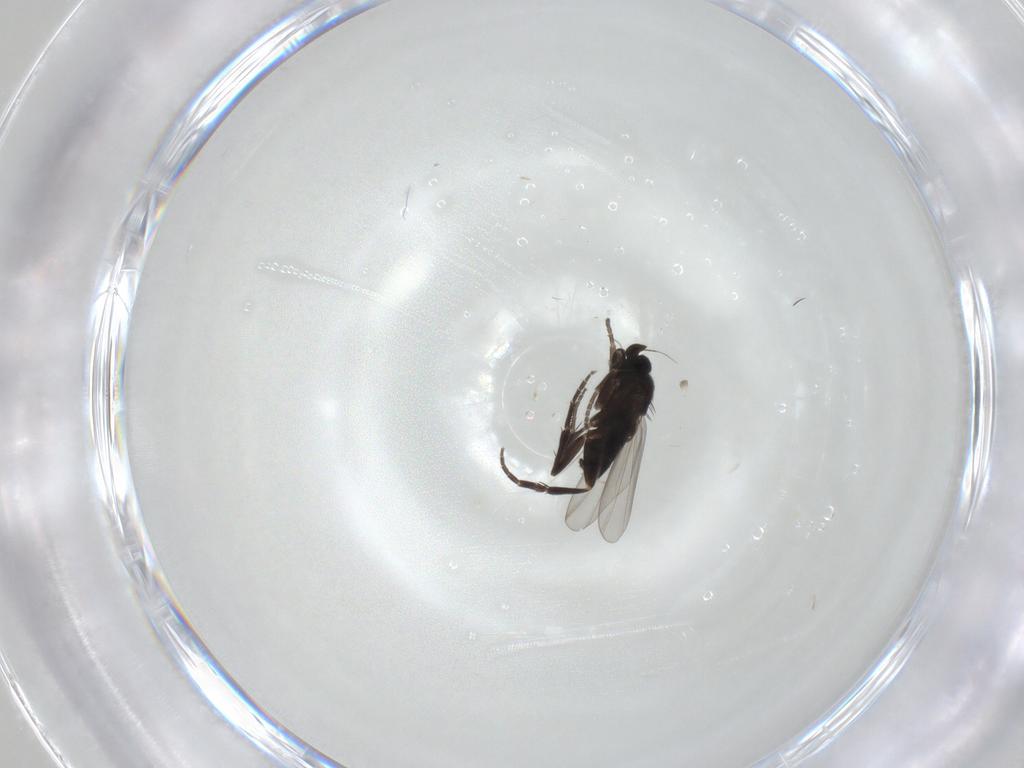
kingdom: Animalia
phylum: Arthropoda
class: Insecta
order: Diptera
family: Phoridae
